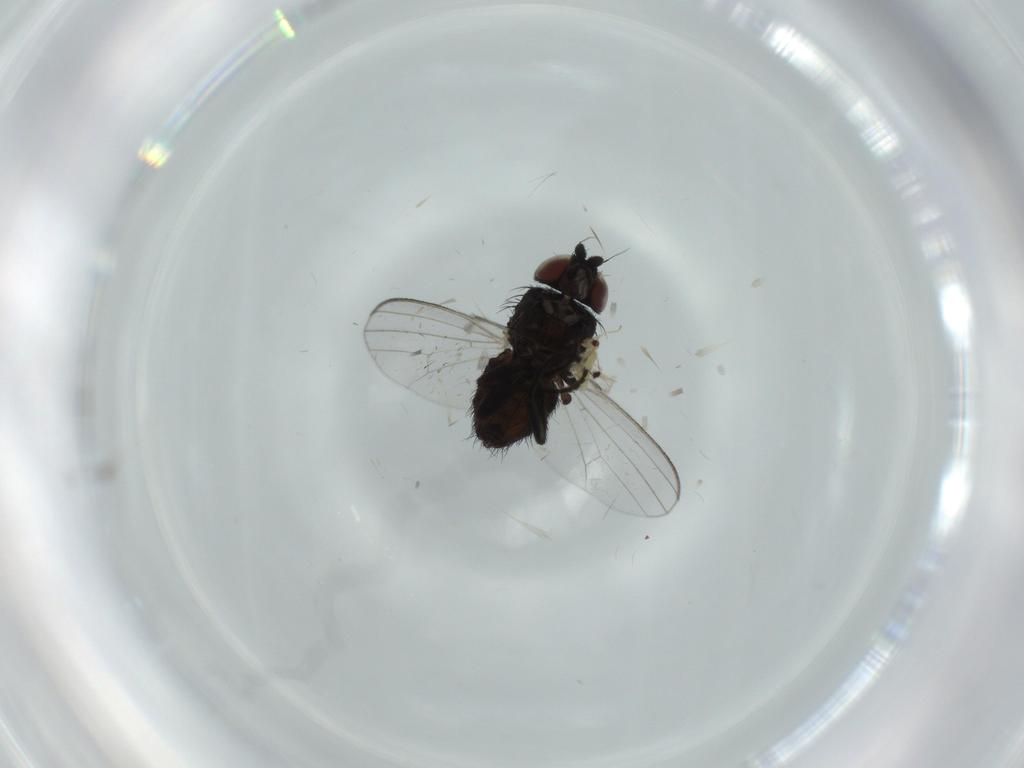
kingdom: Animalia
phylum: Arthropoda
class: Insecta
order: Diptera
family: Milichiidae
